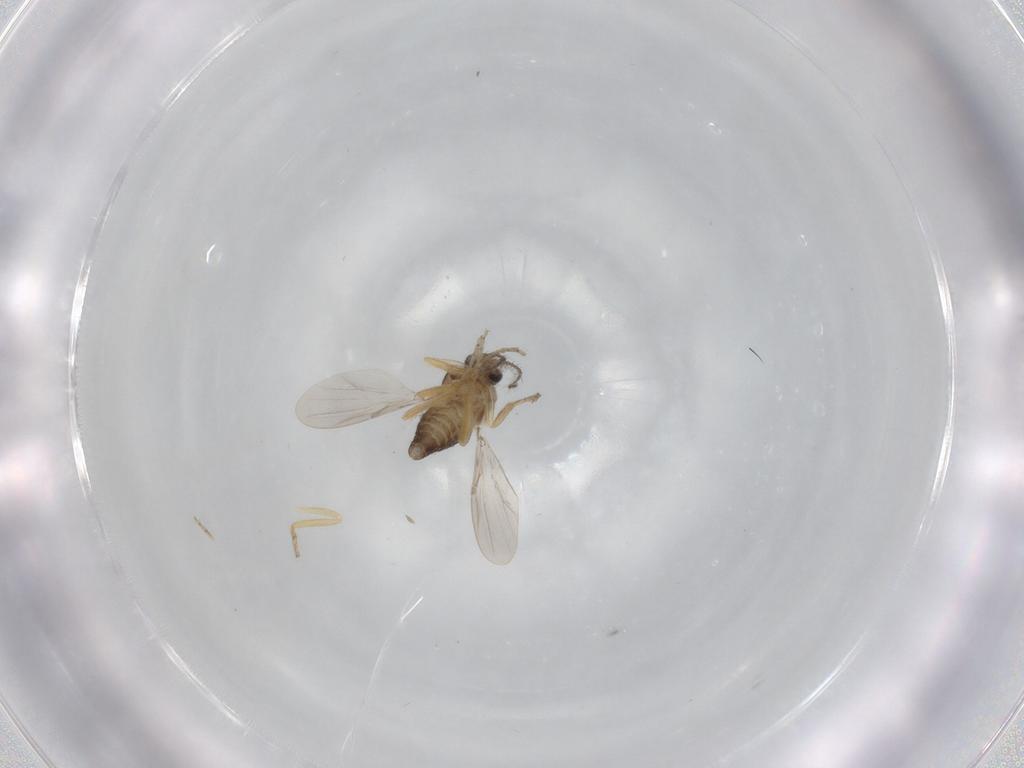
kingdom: Animalia
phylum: Arthropoda
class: Insecta
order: Diptera
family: Ceratopogonidae
